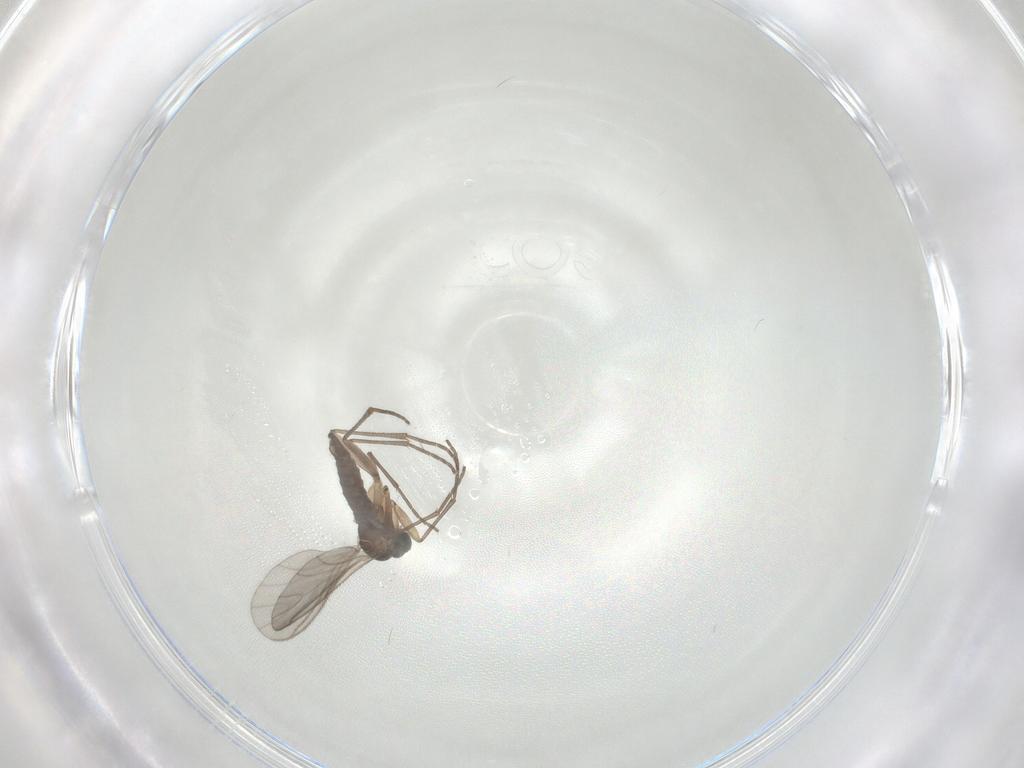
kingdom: Animalia
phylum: Arthropoda
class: Insecta
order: Diptera
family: Sciaridae
